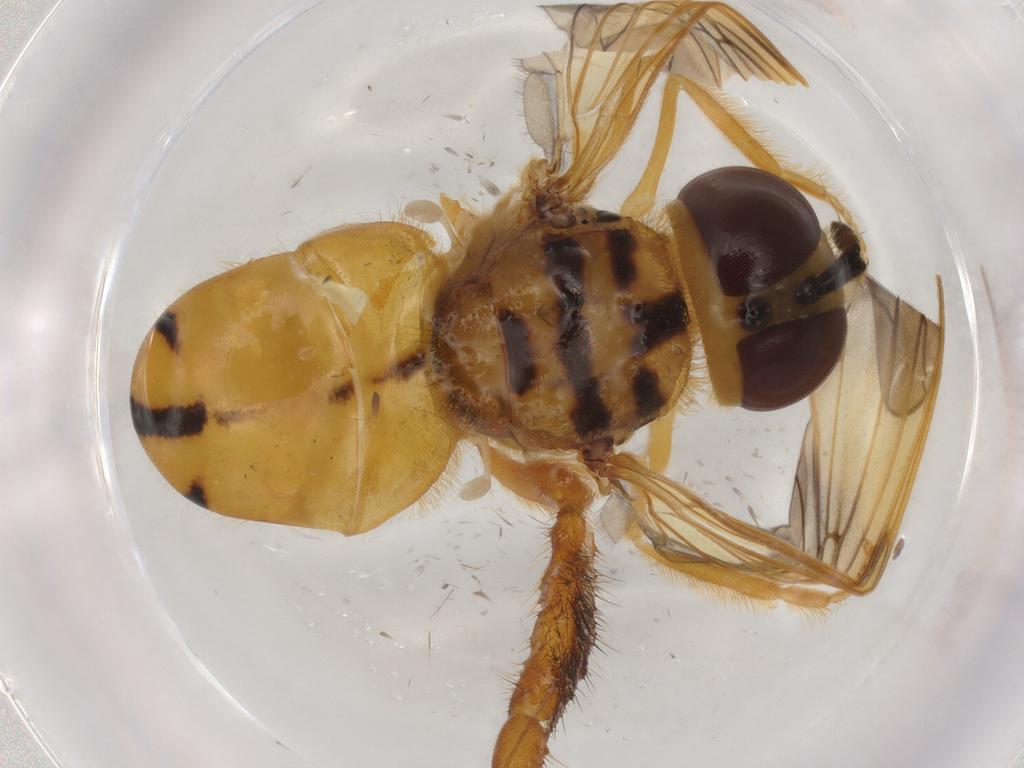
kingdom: Animalia
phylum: Arthropoda
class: Insecta
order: Diptera
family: Syrphidae
